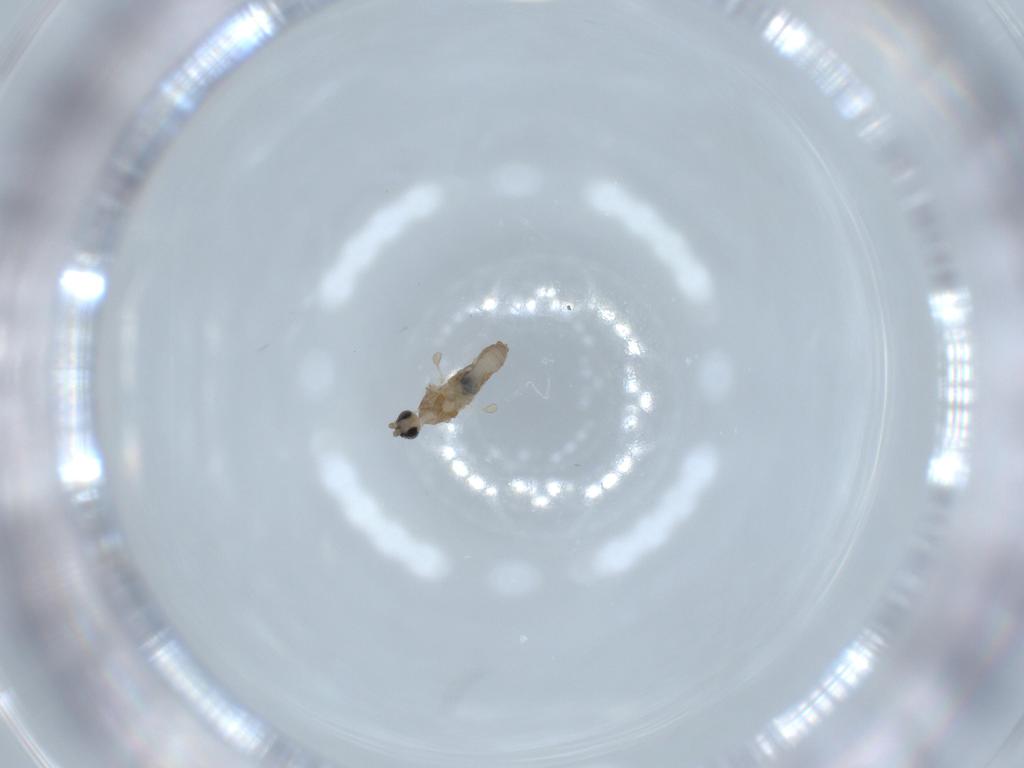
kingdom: Animalia
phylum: Arthropoda
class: Insecta
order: Diptera
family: Cecidomyiidae
